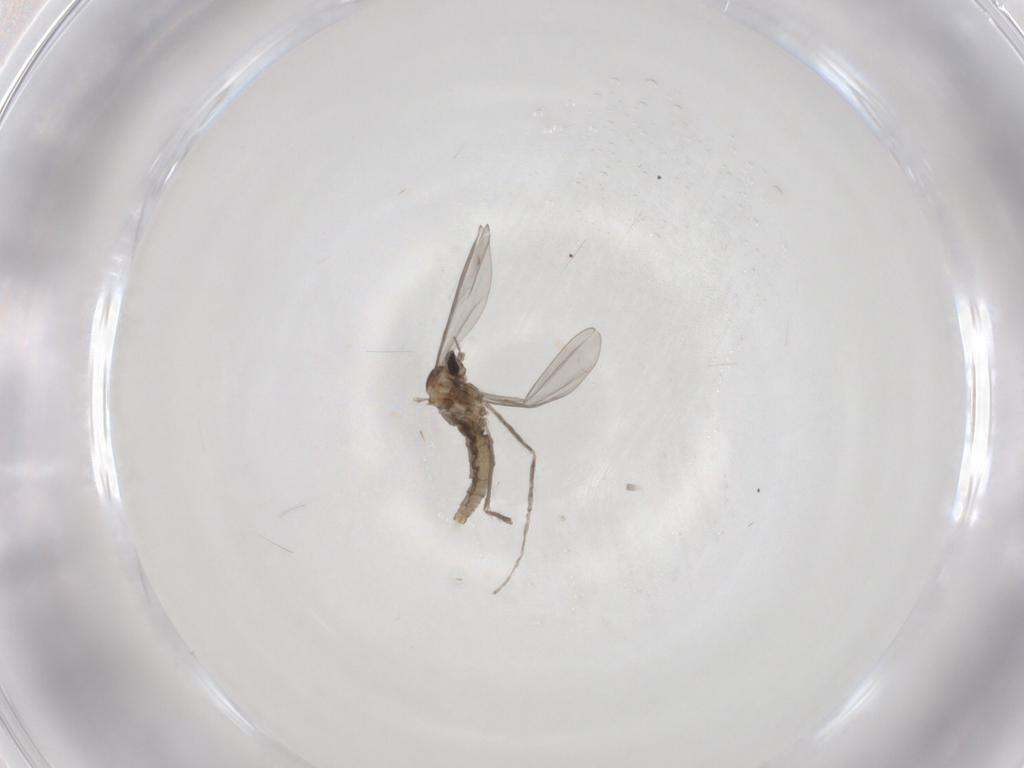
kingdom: Animalia
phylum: Arthropoda
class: Insecta
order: Diptera
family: Cecidomyiidae
